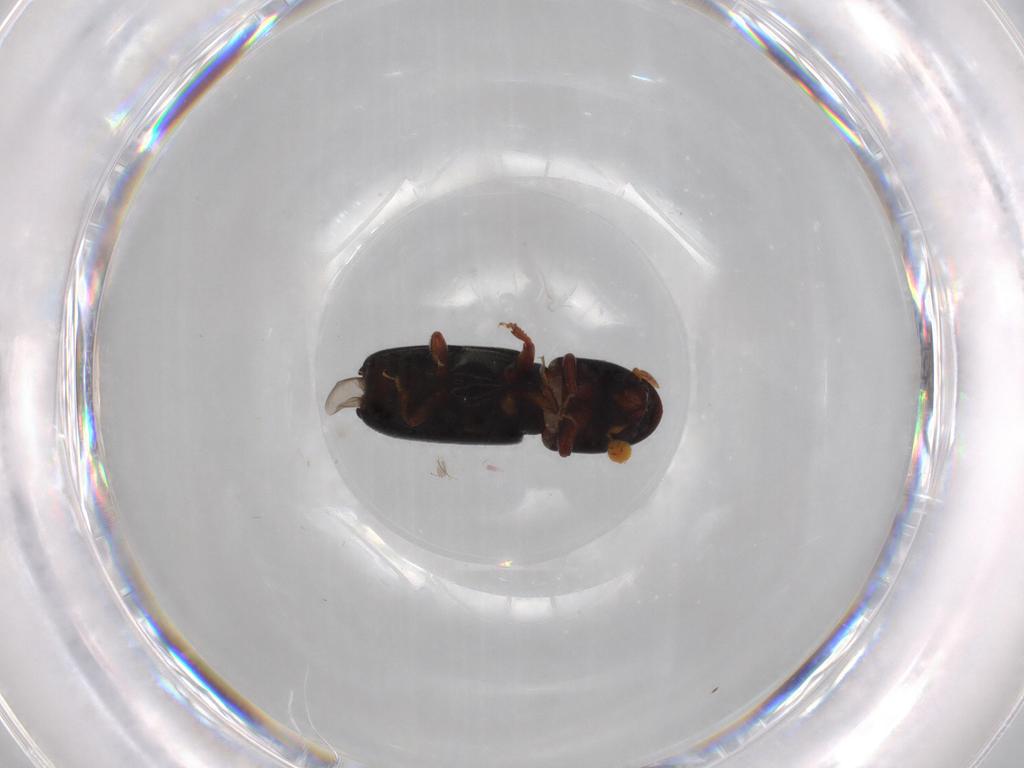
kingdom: Animalia
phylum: Arthropoda
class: Insecta
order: Coleoptera
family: Curculionidae
